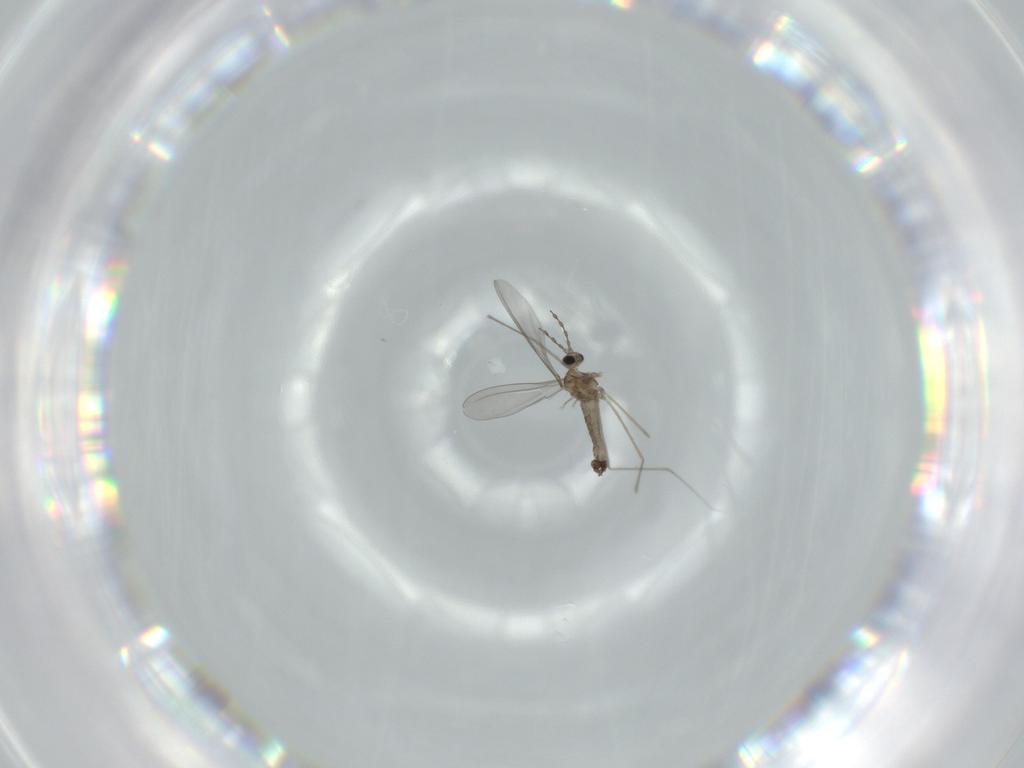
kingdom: Animalia
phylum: Arthropoda
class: Insecta
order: Diptera
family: Cecidomyiidae
